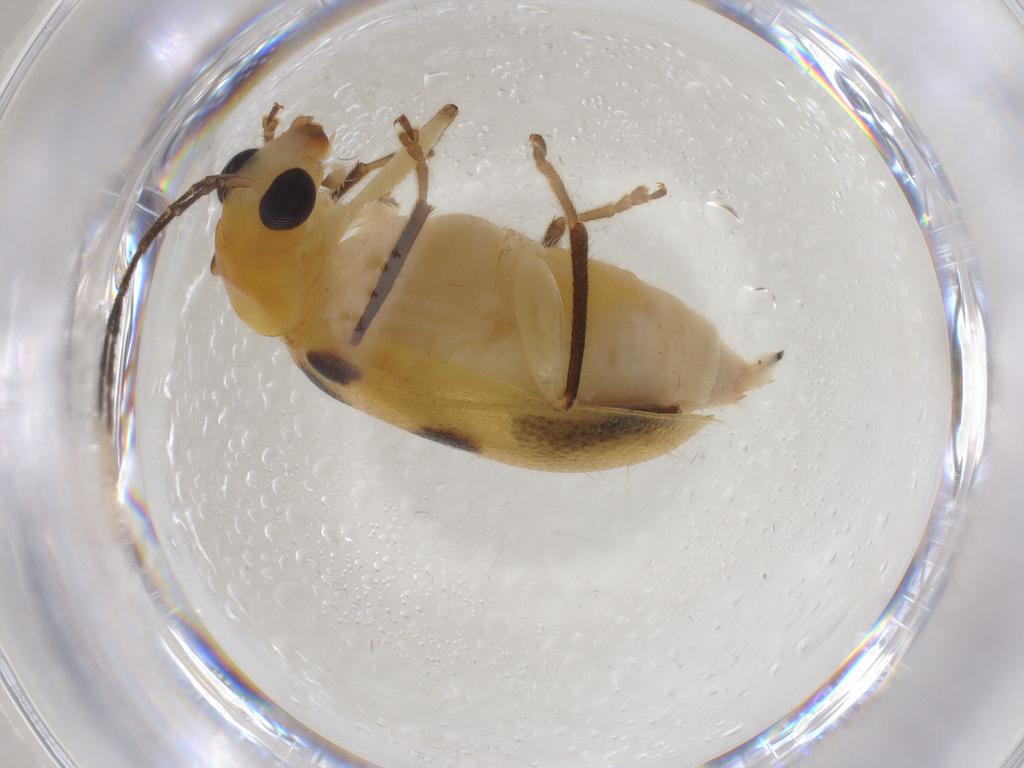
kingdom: Animalia
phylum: Arthropoda
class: Insecta
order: Coleoptera
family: Chrysomelidae
